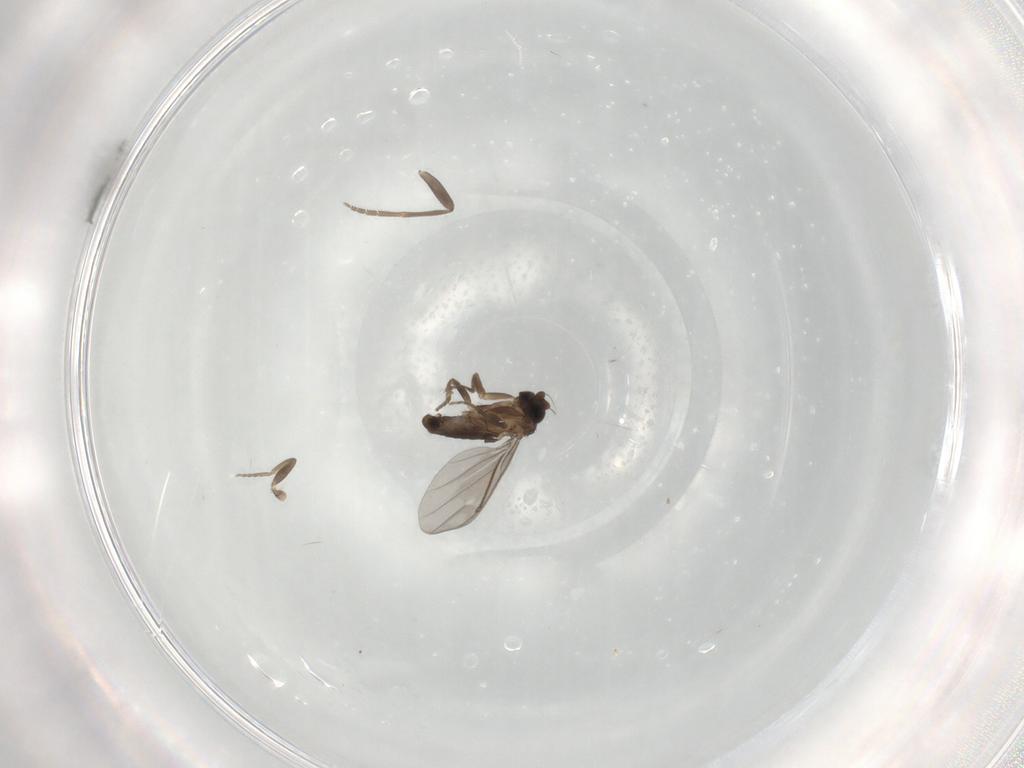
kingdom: Animalia
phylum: Arthropoda
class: Insecta
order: Diptera
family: Phoridae
